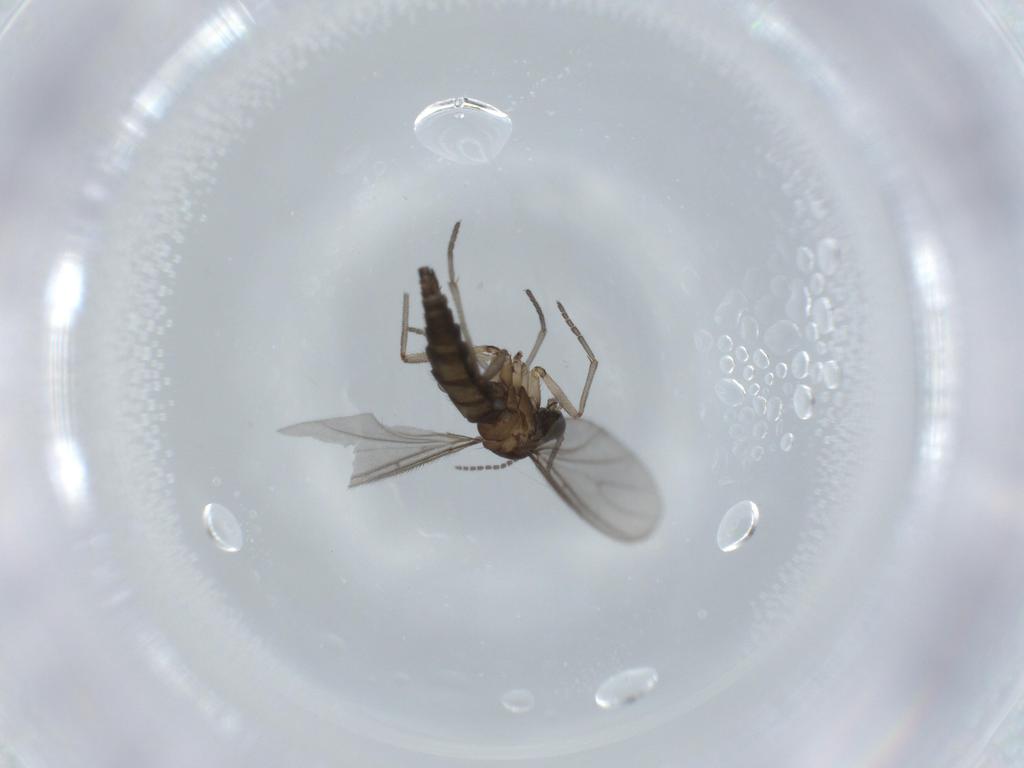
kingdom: Animalia
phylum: Arthropoda
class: Insecta
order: Diptera
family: Sciaridae
